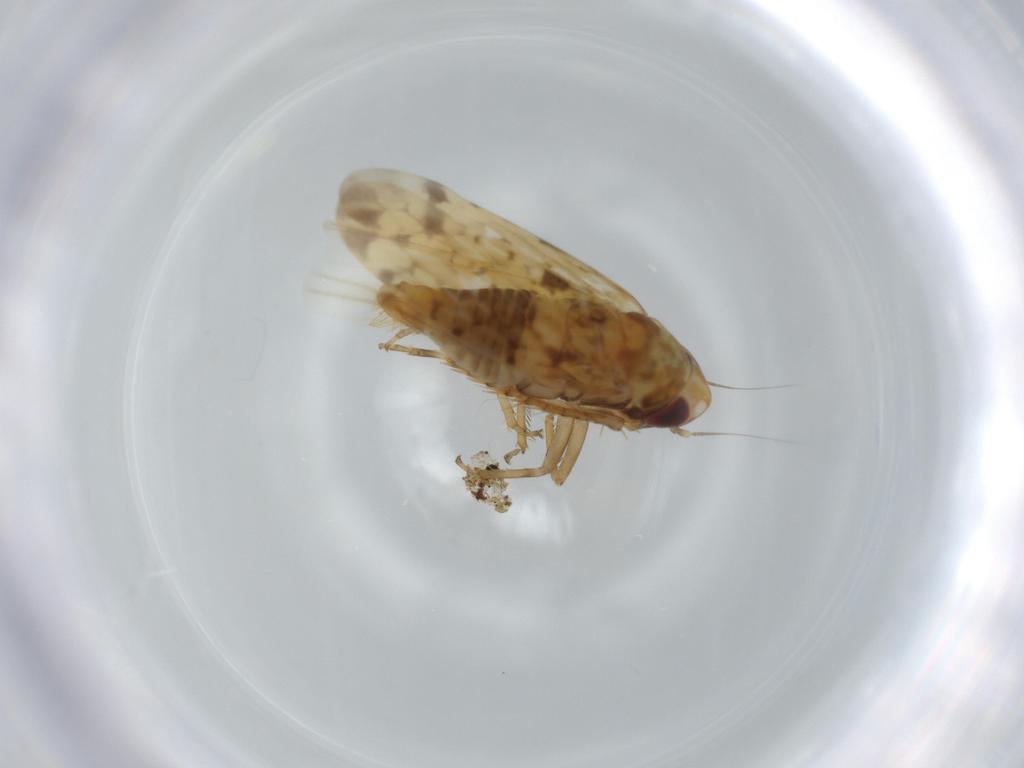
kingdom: Animalia
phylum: Arthropoda
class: Insecta
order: Hemiptera
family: Cicadellidae
